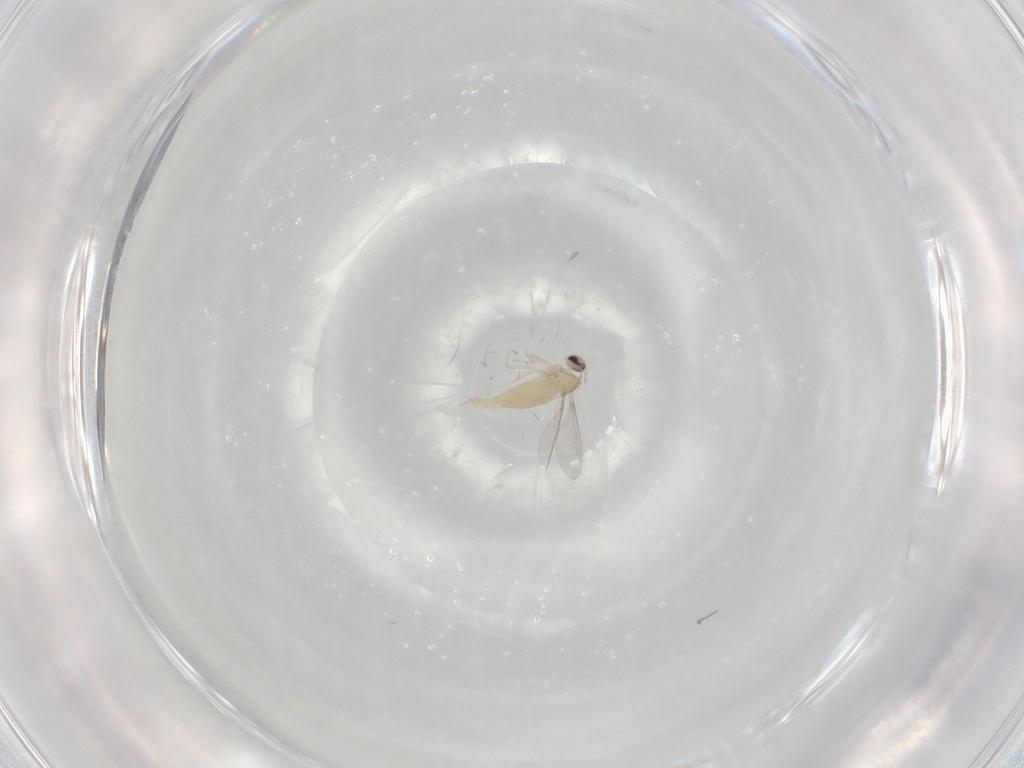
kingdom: Animalia
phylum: Arthropoda
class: Insecta
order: Diptera
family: Cecidomyiidae
